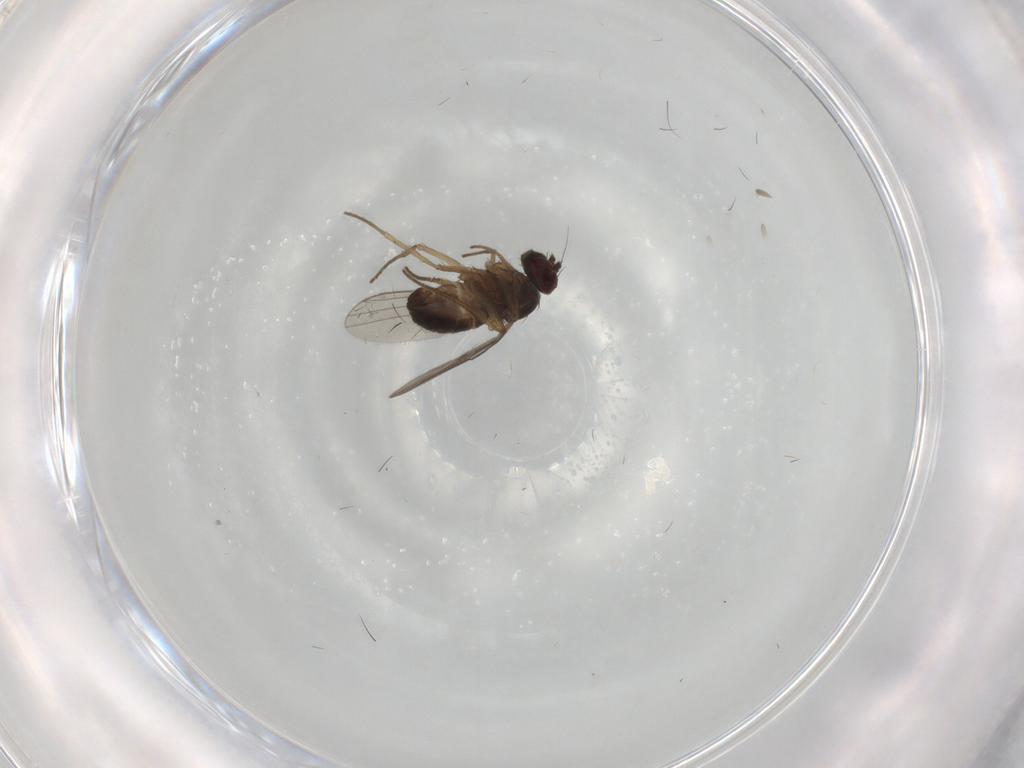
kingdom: Animalia
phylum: Arthropoda
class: Insecta
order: Diptera
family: Dolichopodidae
